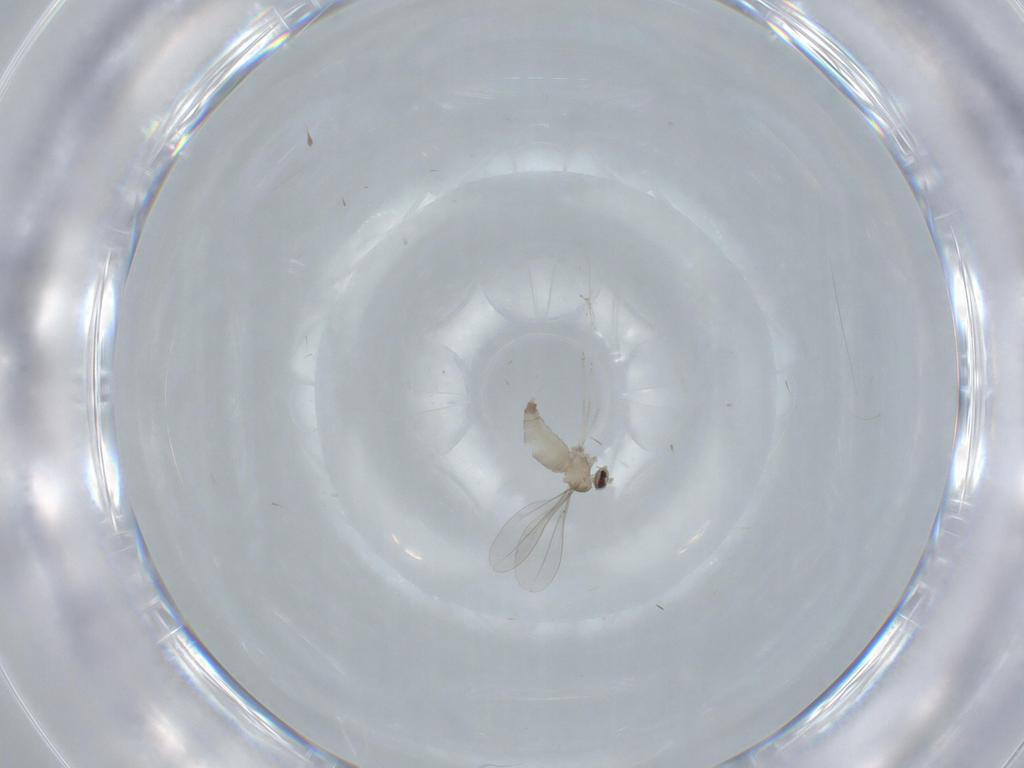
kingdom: Animalia
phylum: Arthropoda
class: Insecta
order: Diptera
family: Cecidomyiidae
